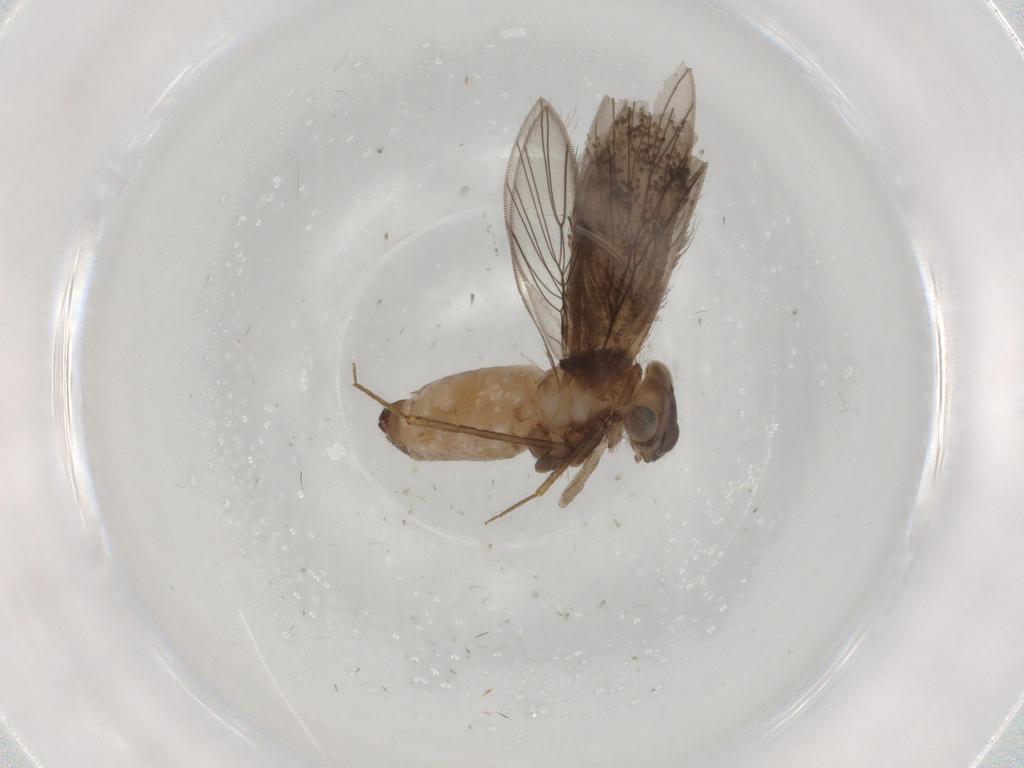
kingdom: Animalia
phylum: Arthropoda
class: Insecta
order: Psocodea
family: Lepidopsocidae
